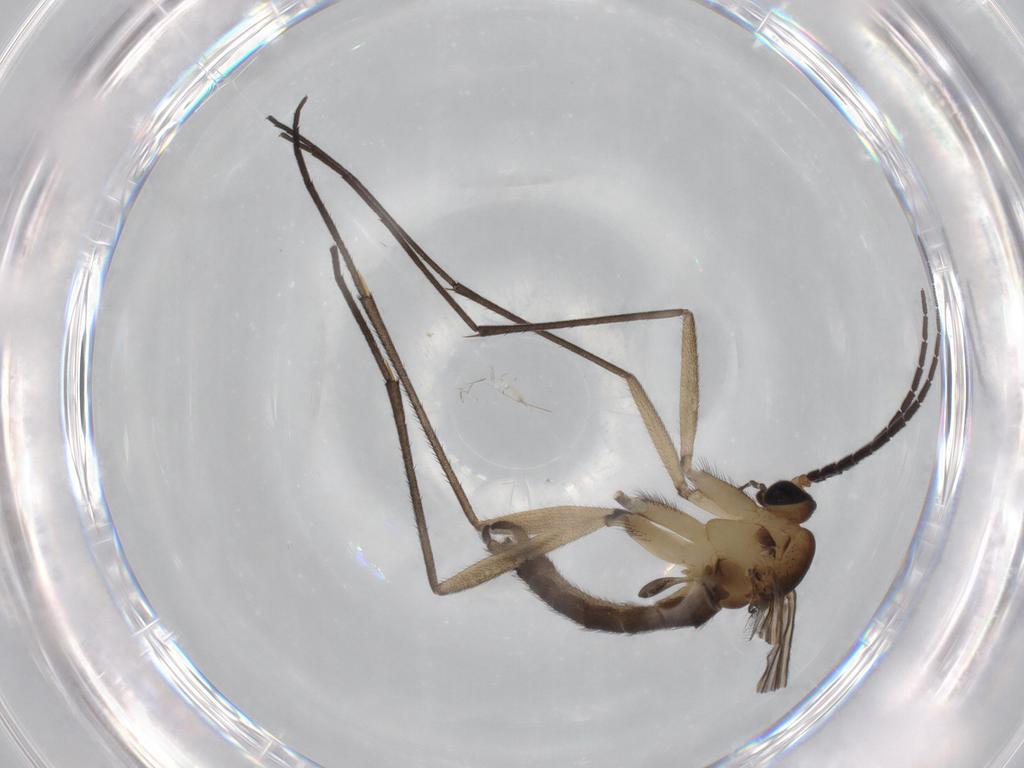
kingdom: Animalia
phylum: Arthropoda
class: Insecta
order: Diptera
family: Sciaridae
